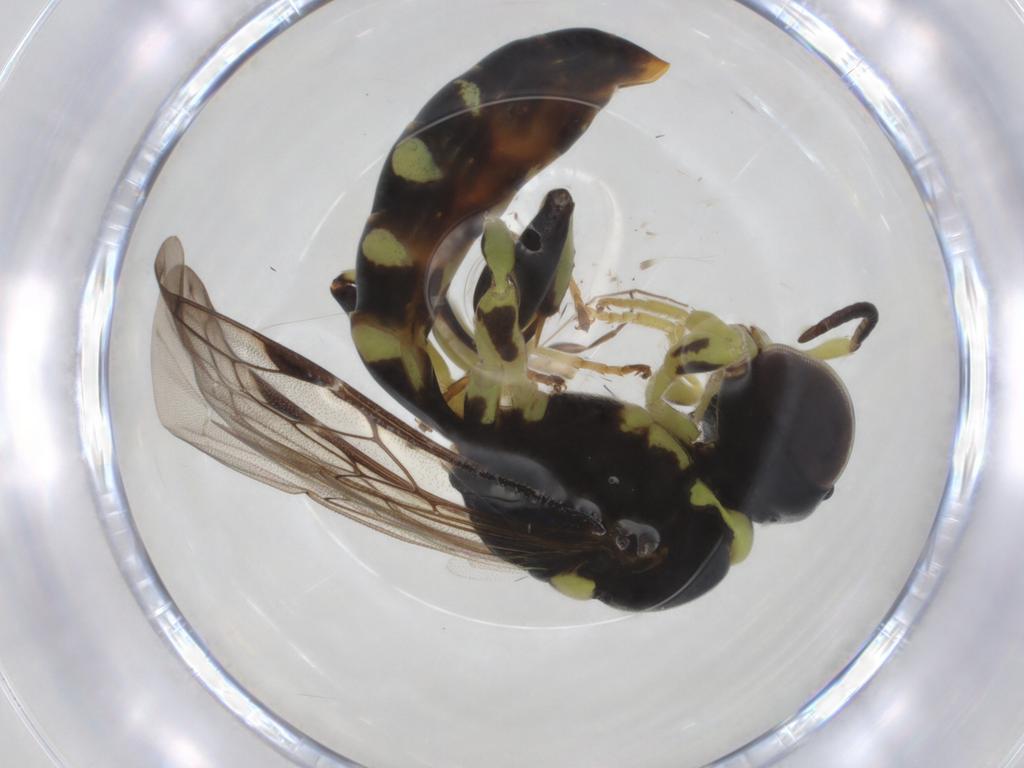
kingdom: Animalia
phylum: Arthropoda
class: Insecta
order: Hymenoptera
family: Crabronidae
